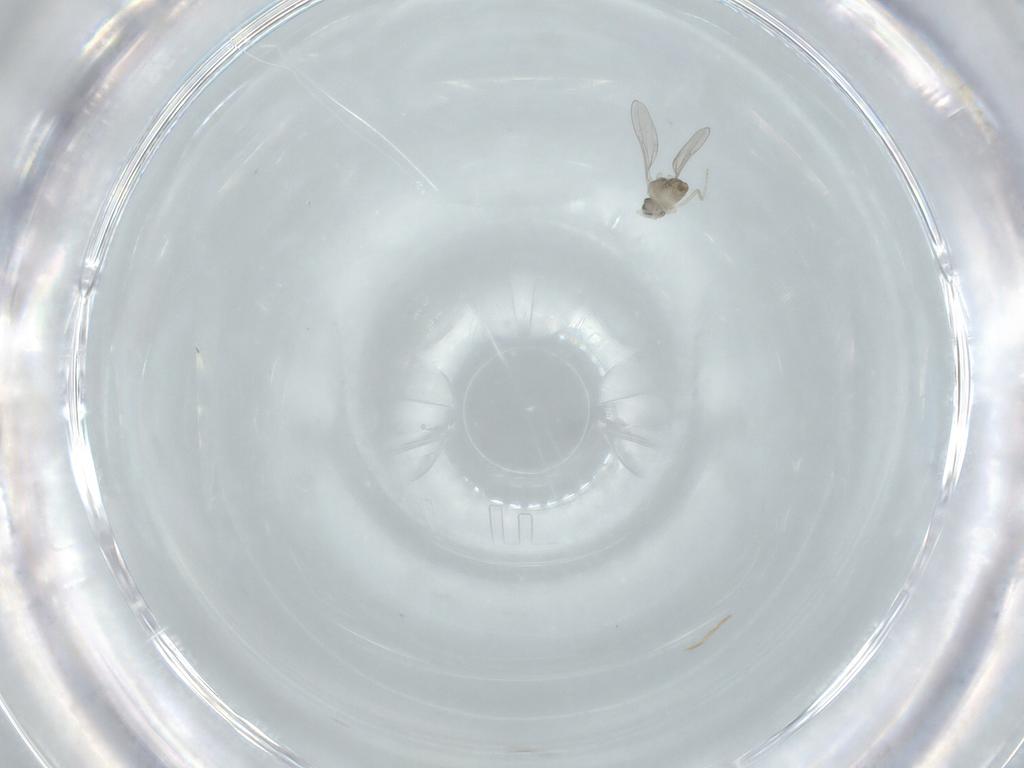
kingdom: Animalia
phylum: Arthropoda
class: Insecta
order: Diptera
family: Cecidomyiidae
